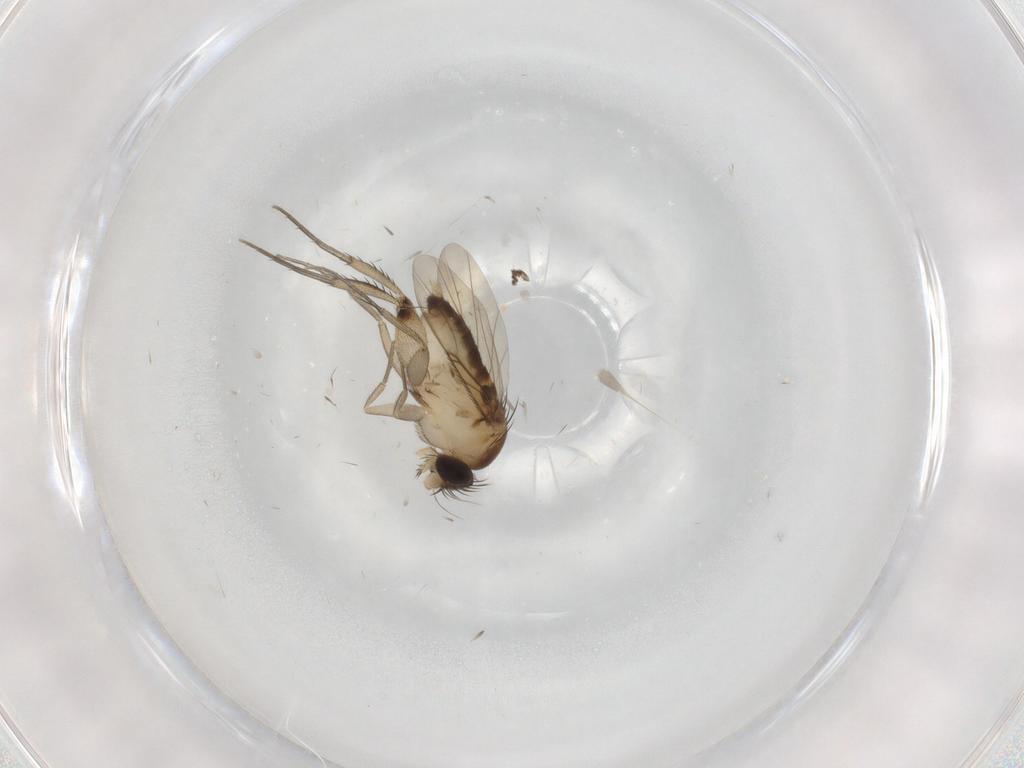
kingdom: Animalia
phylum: Arthropoda
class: Insecta
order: Diptera
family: Phoridae
